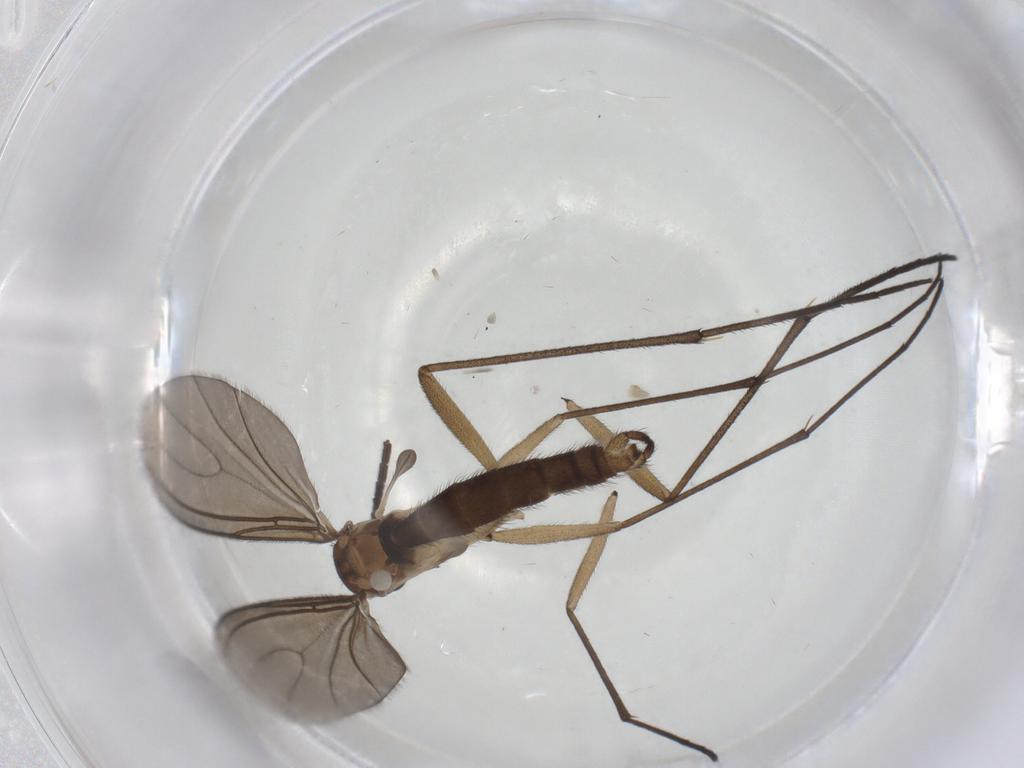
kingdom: Animalia
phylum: Arthropoda
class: Insecta
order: Diptera
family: Sciaridae
